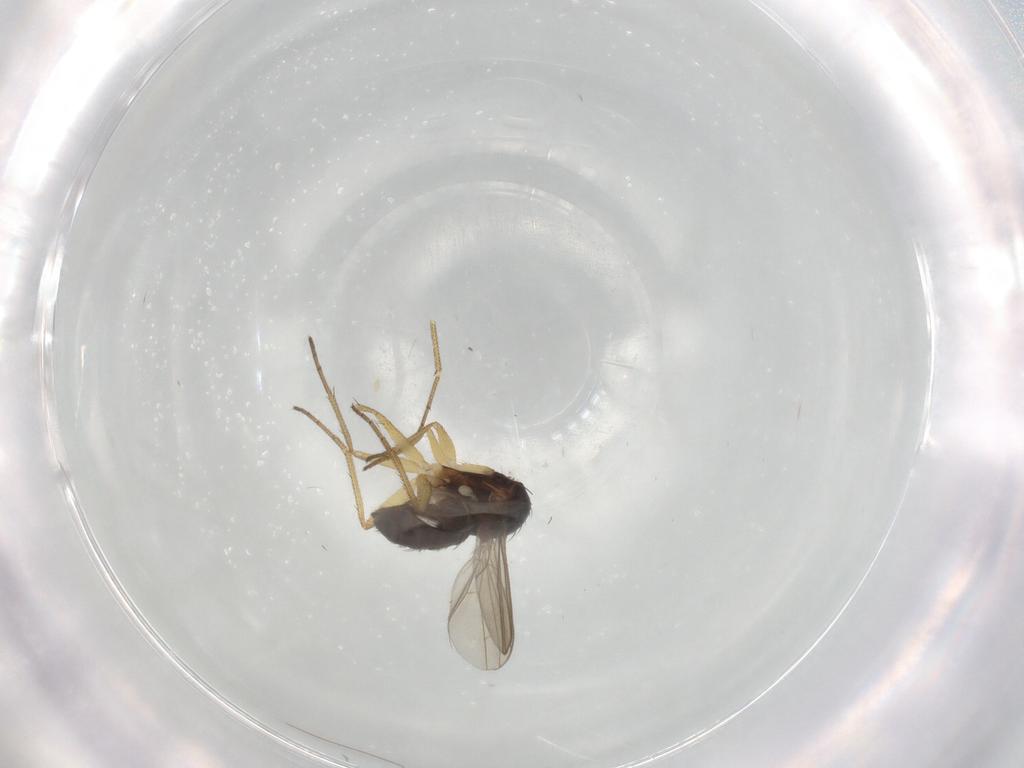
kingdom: Animalia
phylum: Arthropoda
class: Insecta
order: Diptera
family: Dolichopodidae
